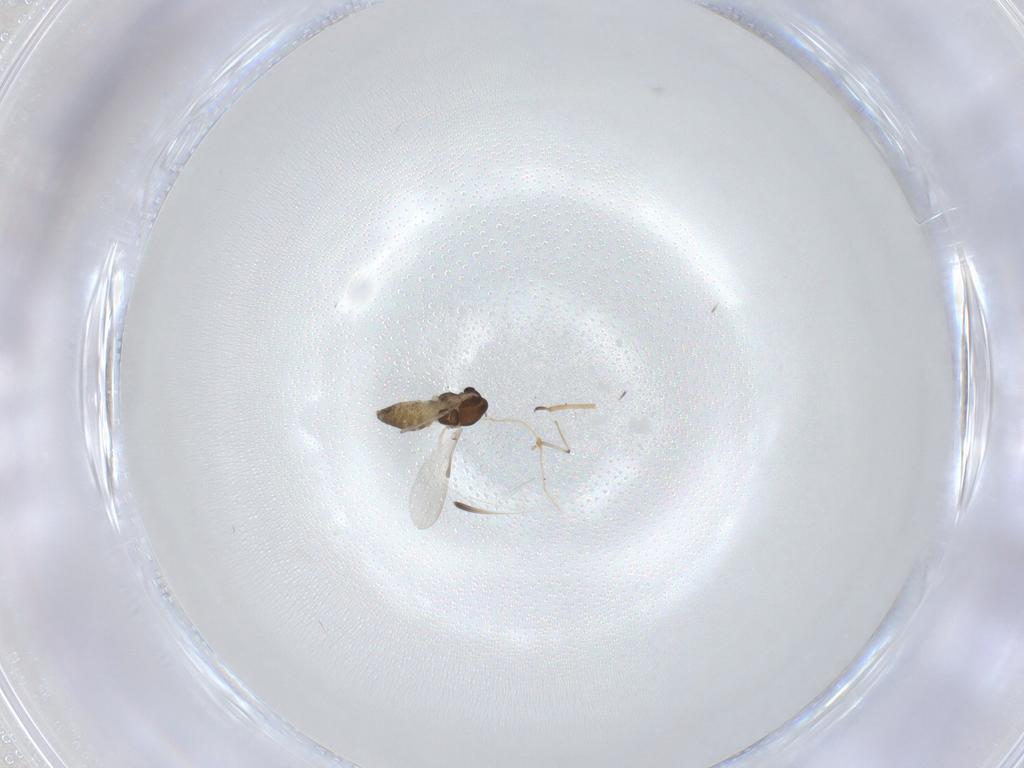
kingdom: Animalia
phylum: Arthropoda
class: Insecta
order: Diptera
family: Chironomidae
